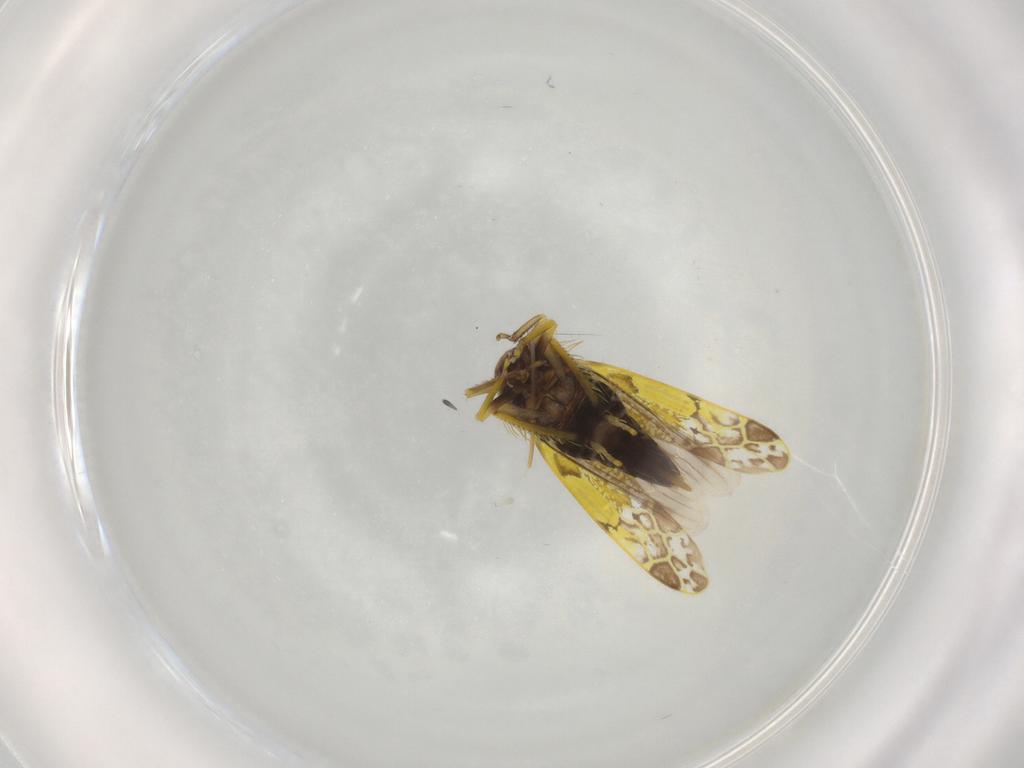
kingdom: Animalia
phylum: Arthropoda
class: Insecta
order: Hemiptera
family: Cicadellidae
